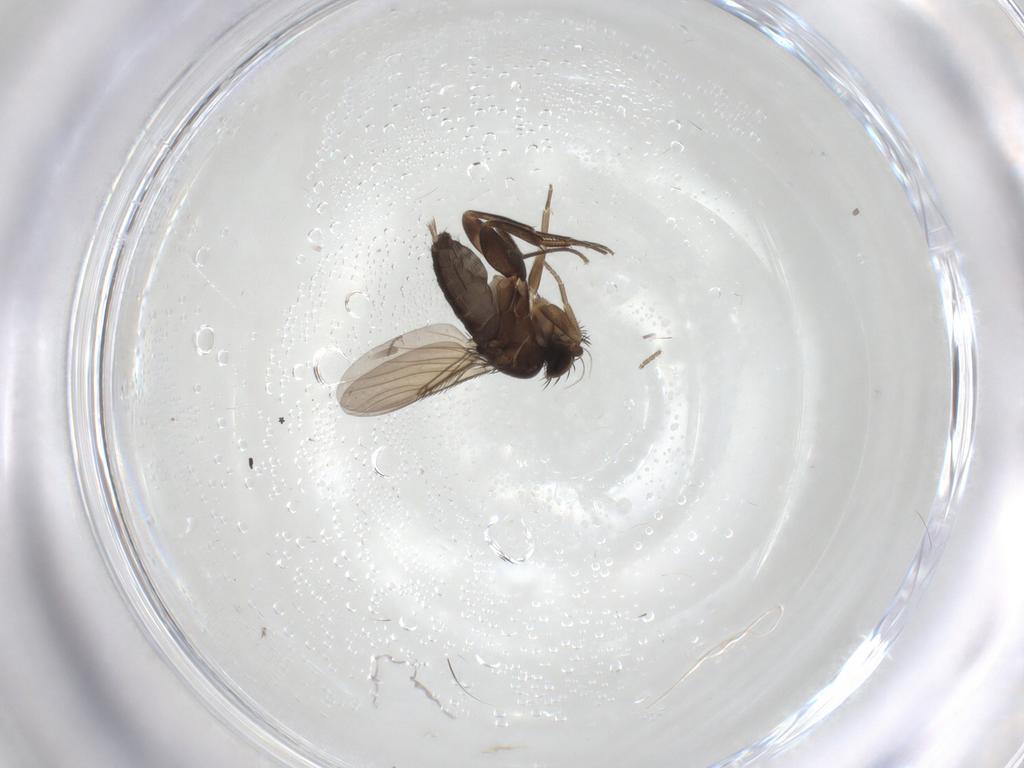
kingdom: Animalia
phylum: Arthropoda
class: Insecta
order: Diptera
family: Phoridae
